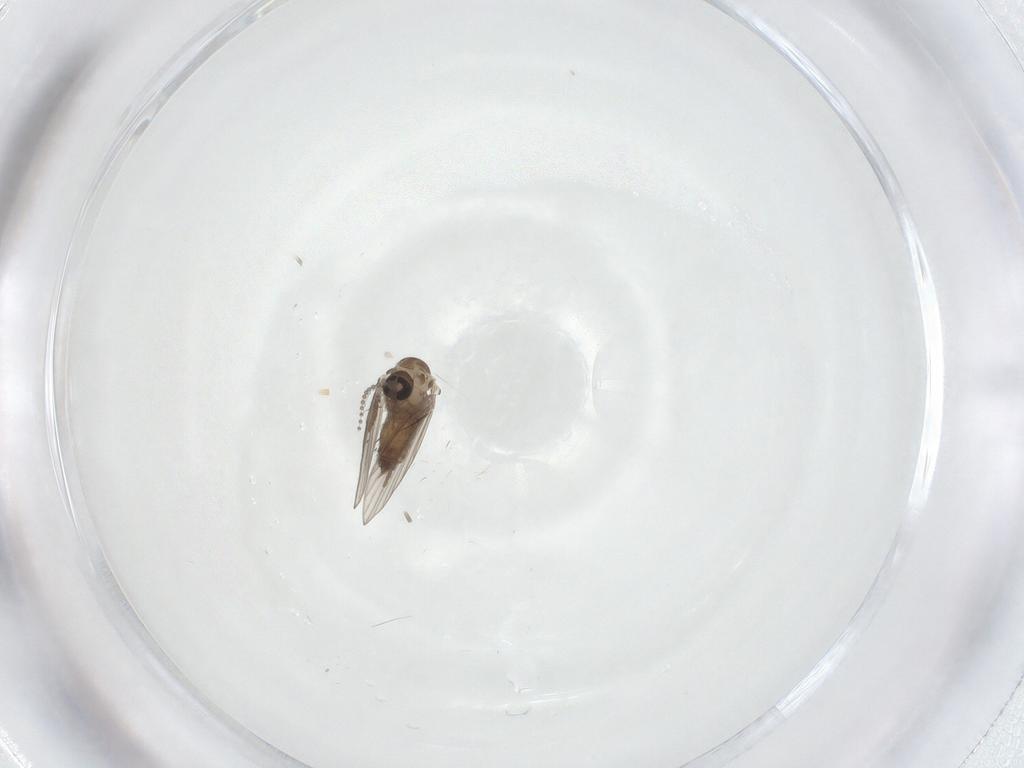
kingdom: Animalia
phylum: Arthropoda
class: Insecta
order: Diptera
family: Psychodidae
